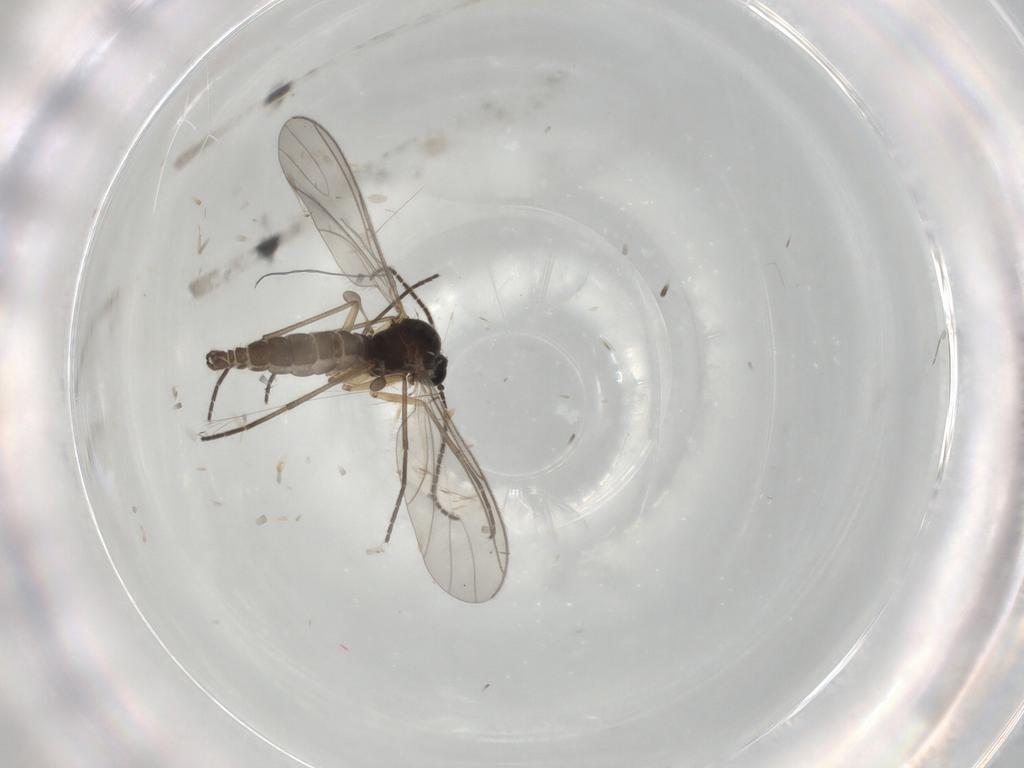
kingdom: Animalia
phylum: Arthropoda
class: Insecta
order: Diptera
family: Sciaridae
